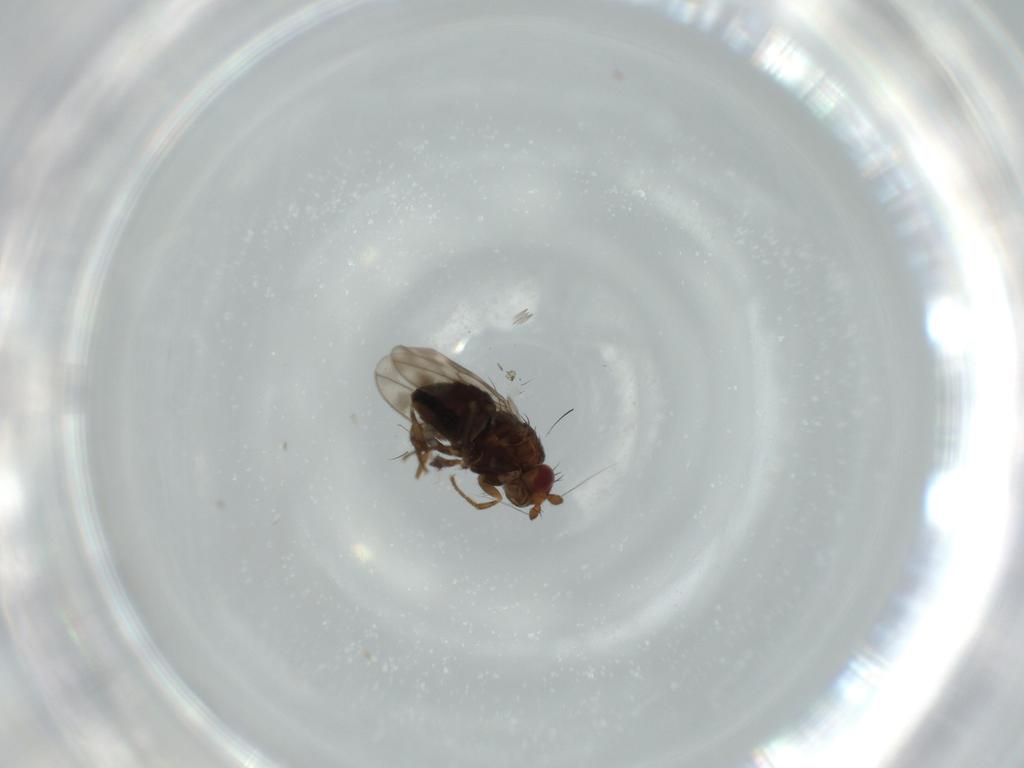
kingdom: Animalia
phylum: Arthropoda
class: Insecta
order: Diptera
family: Sphaeroceridae
